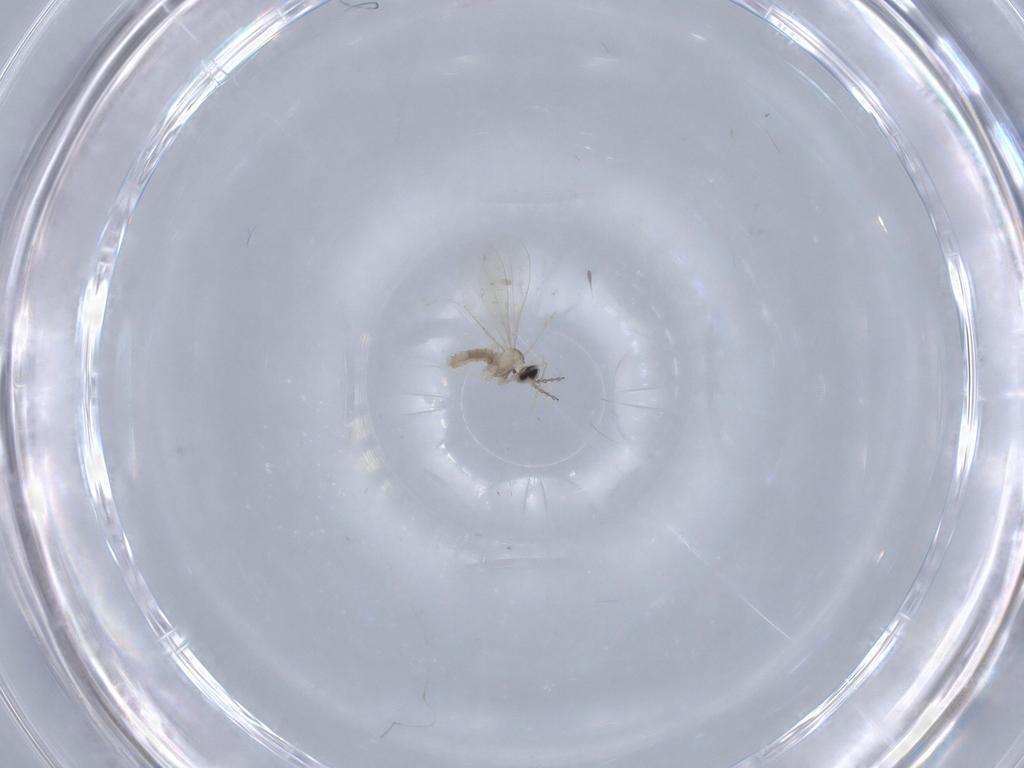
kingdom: Animalia
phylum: Arthropoda
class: Insecta
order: Diptera
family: Cecidomyiidae
